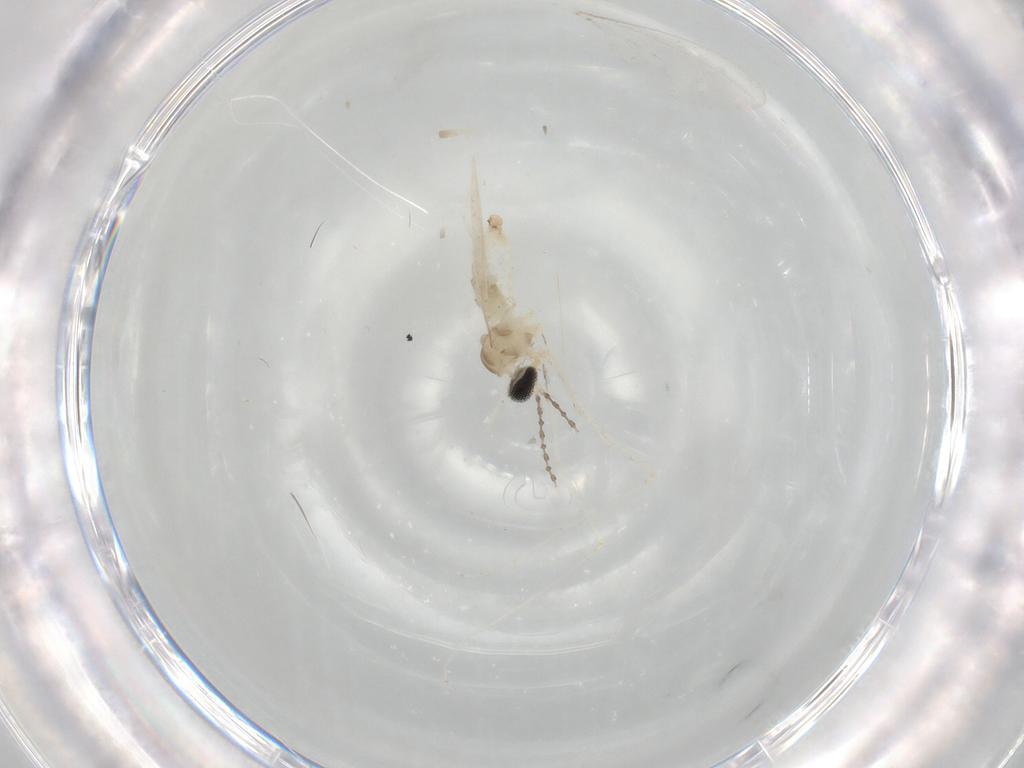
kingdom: Animalia
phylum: Arthropoda
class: Insecta
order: Diptera
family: Cecidomyiidae
